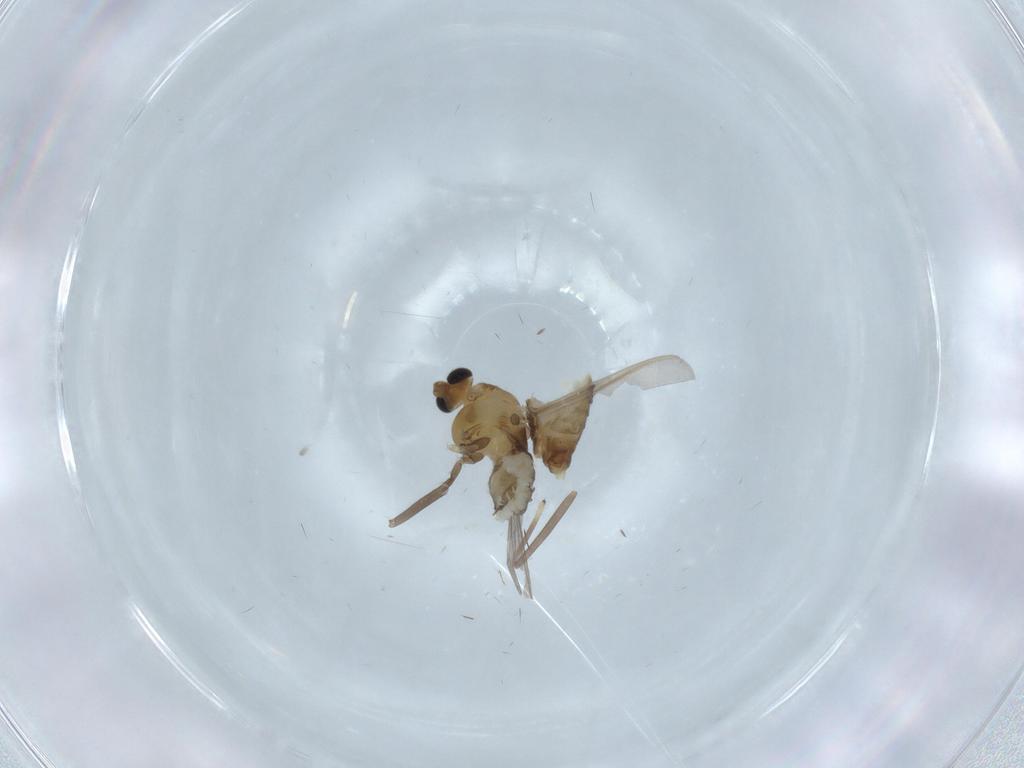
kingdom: Animalia
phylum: Arthropoda
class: Insecta
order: Diptera
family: Chironomidae
